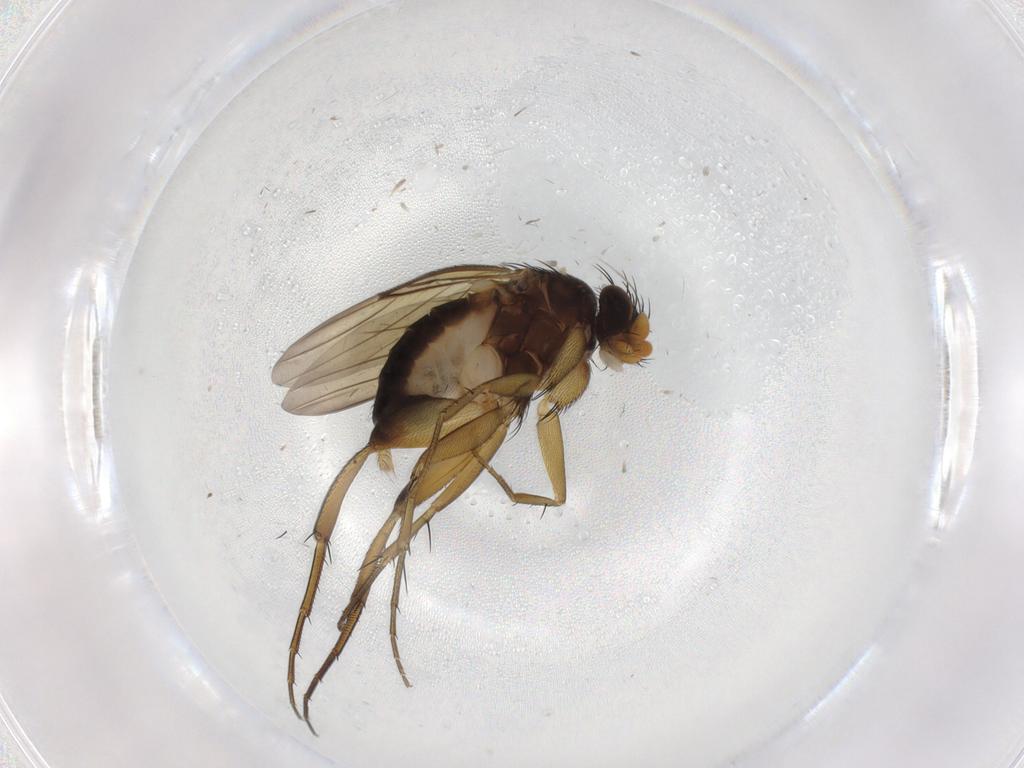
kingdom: Animalia
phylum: Arthropoda
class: Insecta
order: Diptera
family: Phoridae
